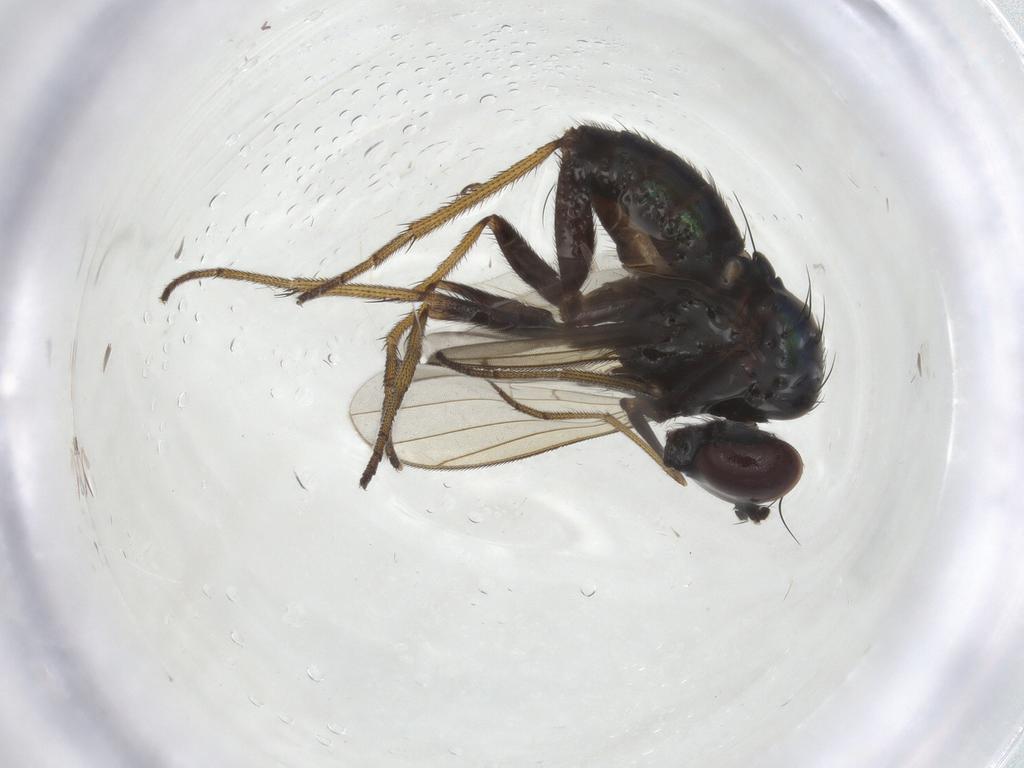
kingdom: Animalia
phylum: Arthropoda
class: Insecta
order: Diptera
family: Dolichopodidae
